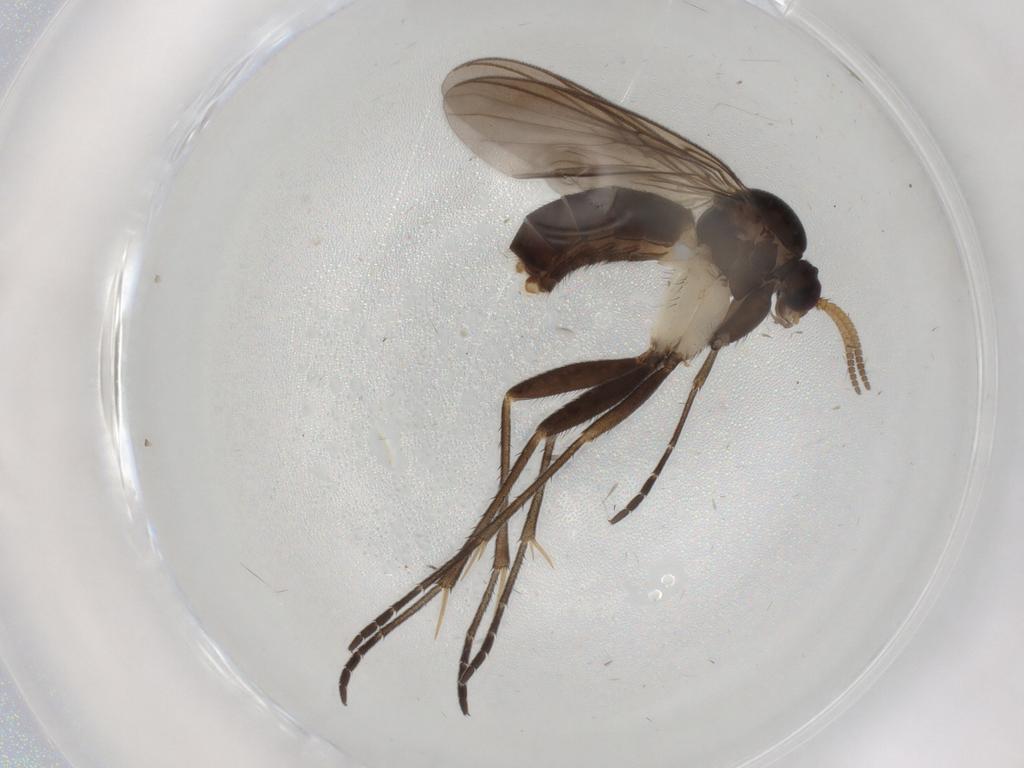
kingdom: Animalia
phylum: Arthropoda
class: Insecta
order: Diptera
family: Mycetophilidae
